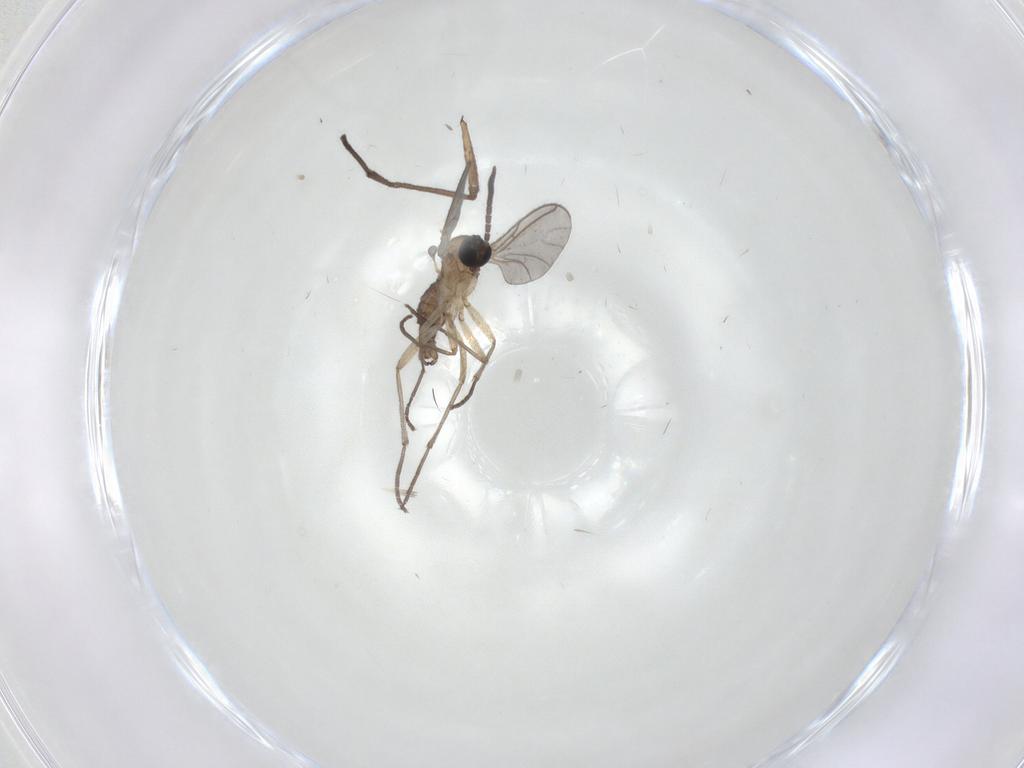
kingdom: Animalia
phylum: Arthropoda
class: Insecta
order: Diptera
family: Sciaridae
